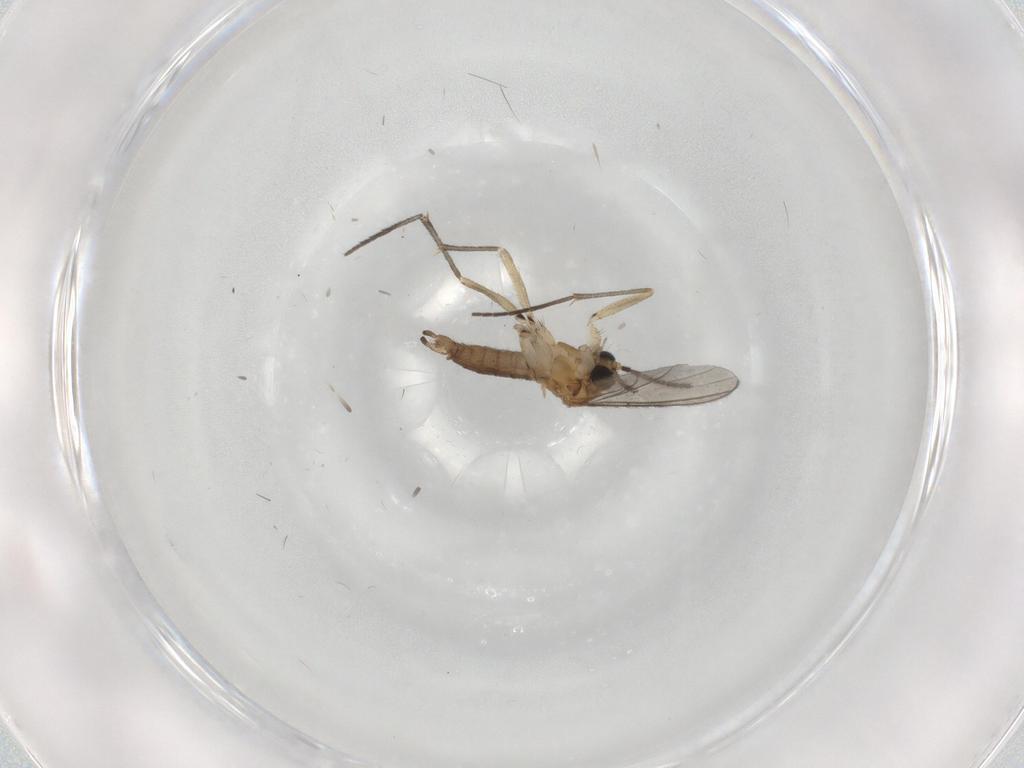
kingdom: Animalia
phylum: Arthropoda
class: Insecta
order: Diptera
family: Sciaridae
